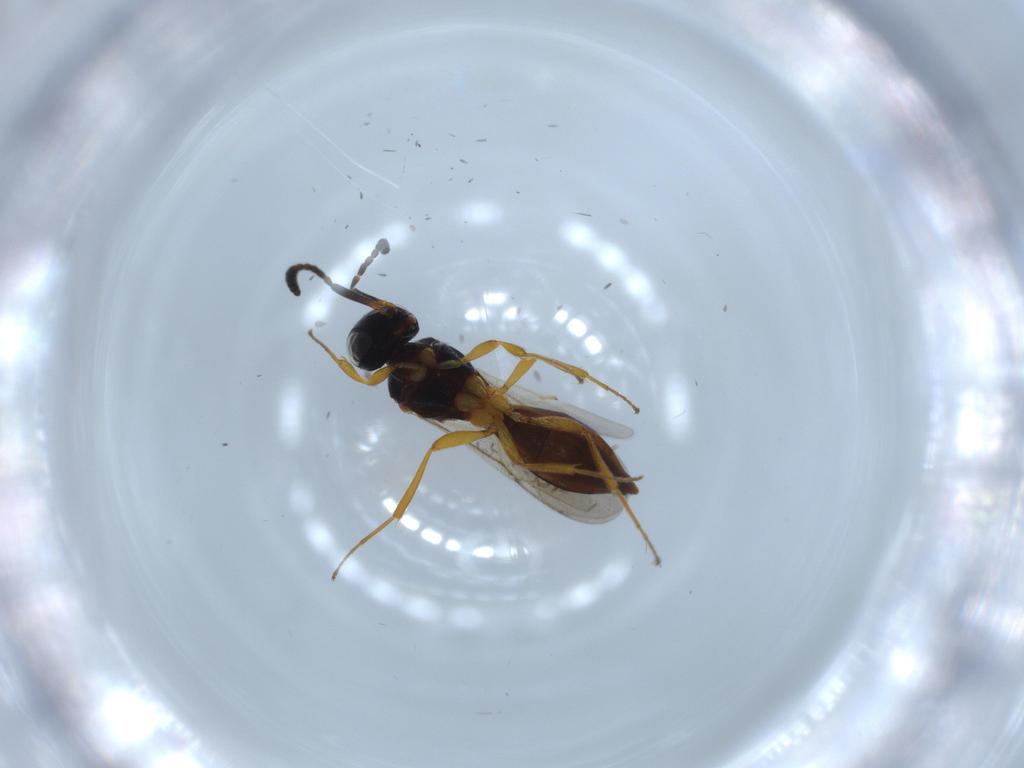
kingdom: Animalia
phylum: Arthropoda
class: Insecta
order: Hymenoptera
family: Scelionidae
